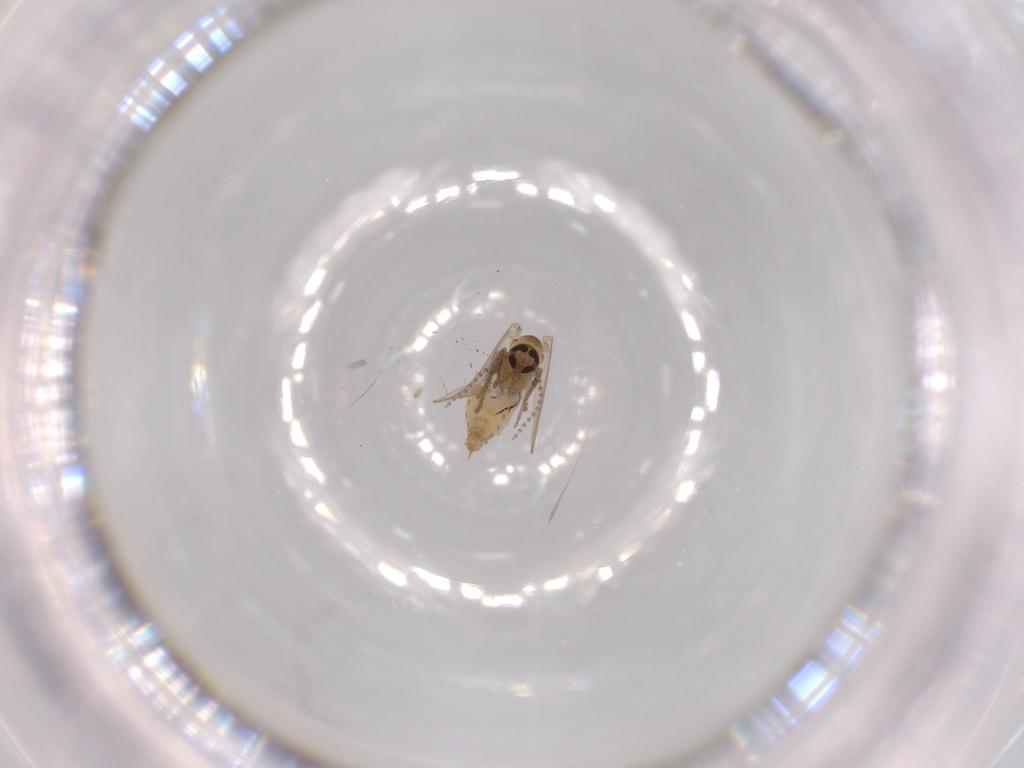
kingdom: Animalia
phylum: Arthropoda
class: Insecta
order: Diptera
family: Psychodidae
